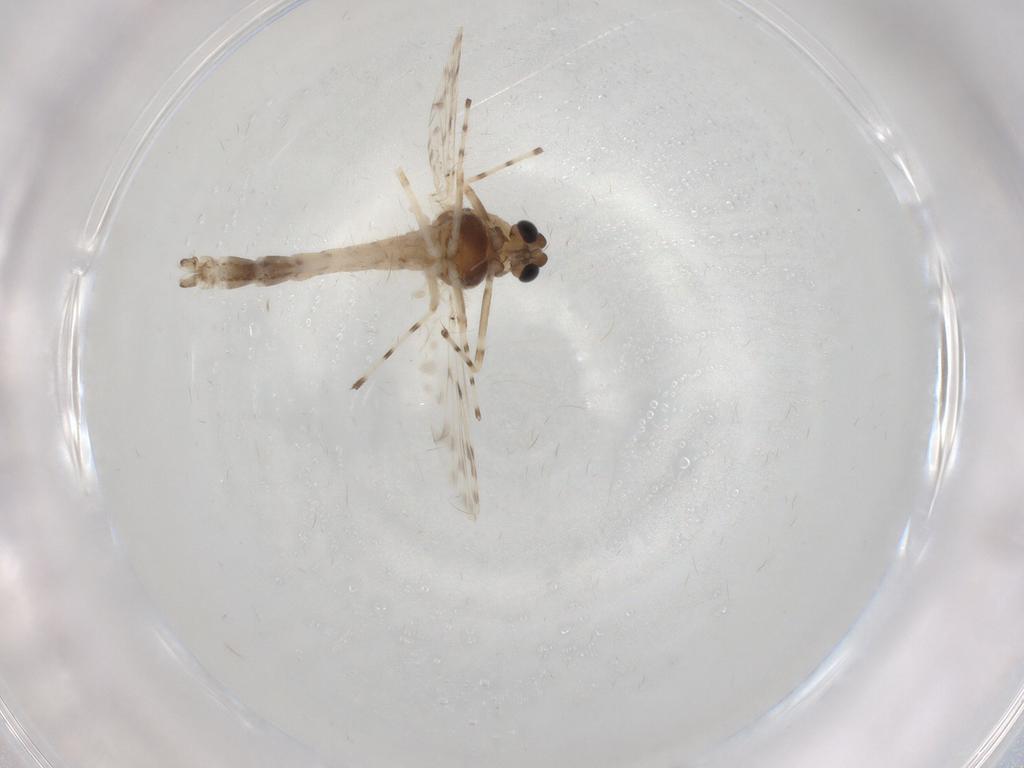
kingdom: Animalia
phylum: Arthropoda
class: Insecta
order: Diptera
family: Chironomidae
